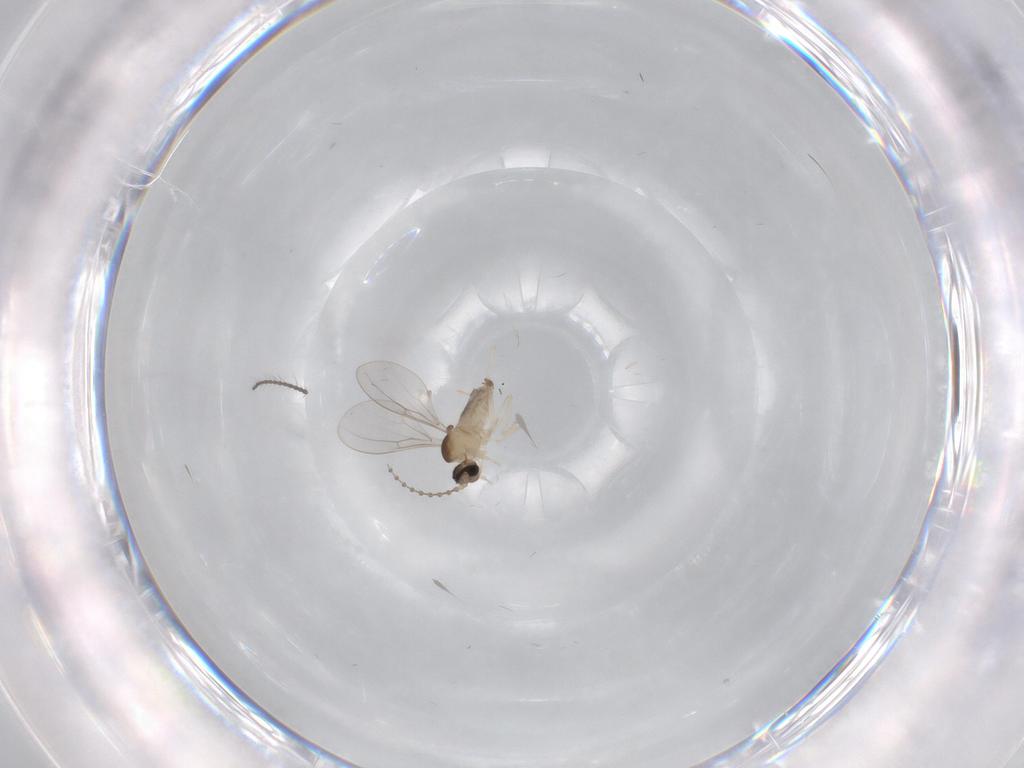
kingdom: Animalia
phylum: Arthropoda
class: Insecta
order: Diptera
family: Cecidomyiidae
